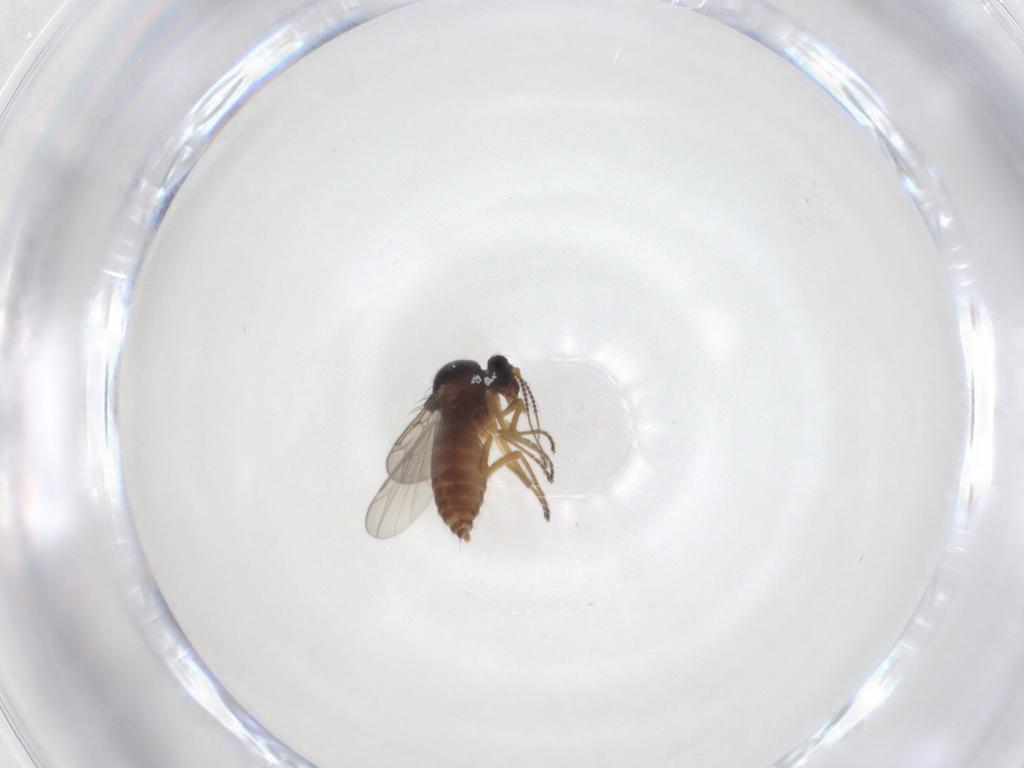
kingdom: Animalia
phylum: Arthropoda
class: Insecta
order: Diptera
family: Ceratopogonidae
